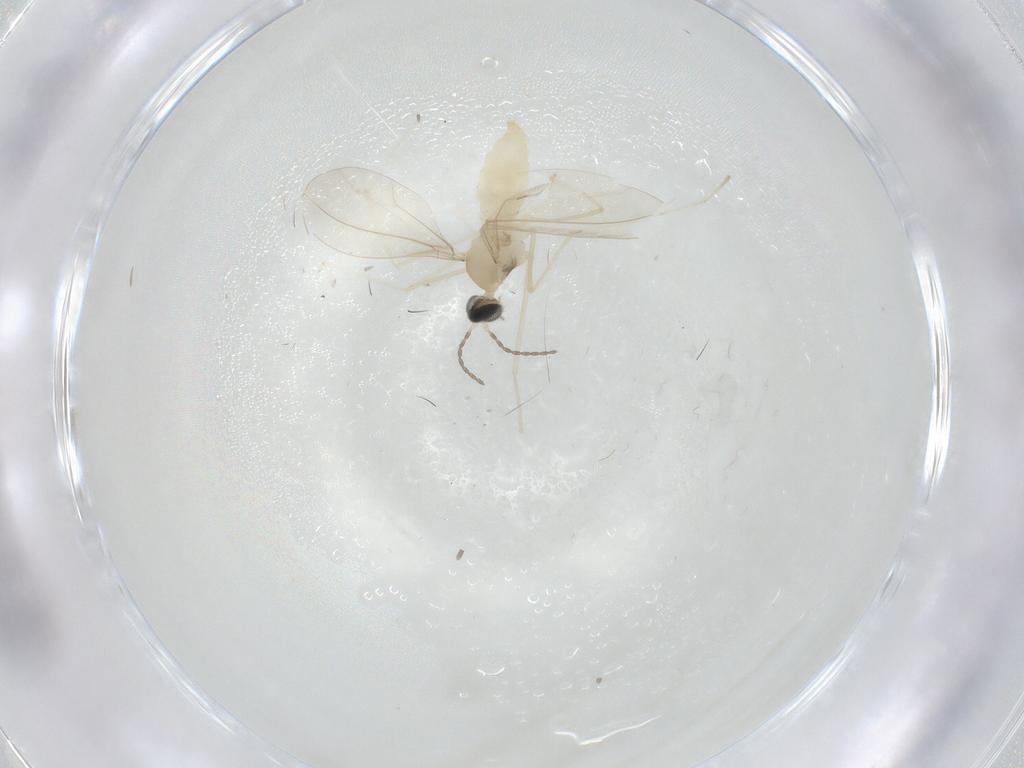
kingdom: Animalia
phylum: Arthropoda
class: Insecta
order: Diptera
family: Cecidomyiidae
